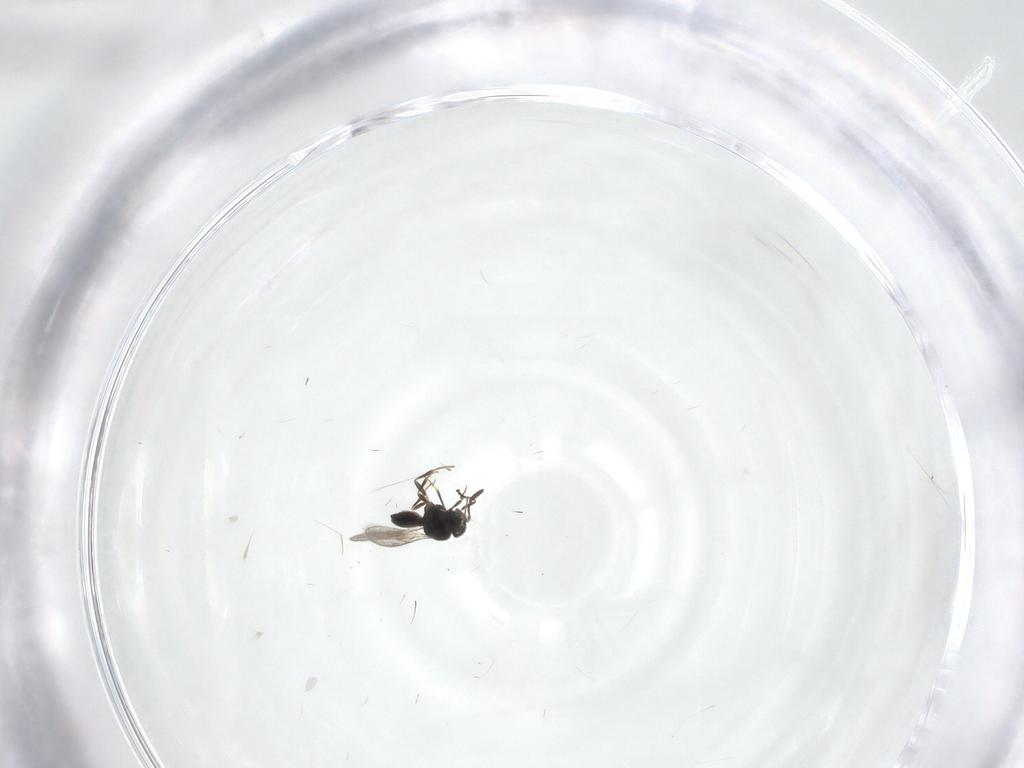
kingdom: Animalia
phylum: Arthropoda
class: Insecta
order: Hymenoptera
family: Scelionidae
